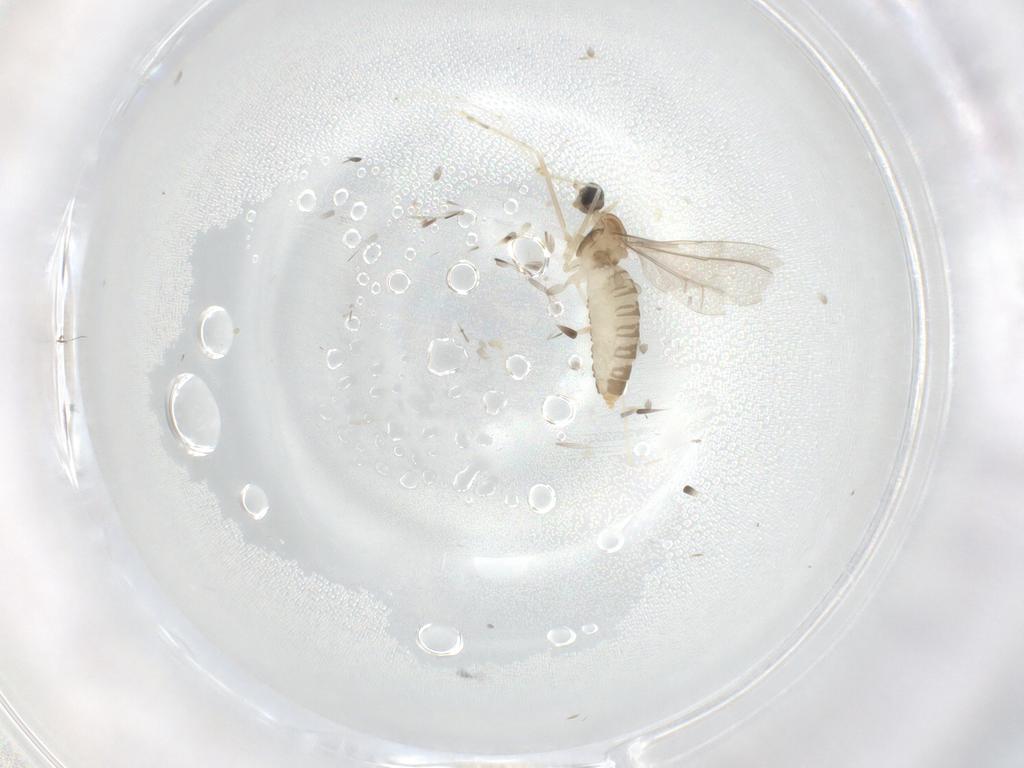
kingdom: Animalia
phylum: Arthropoda
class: Insecta
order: Diptera
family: Cecidomyiidae
